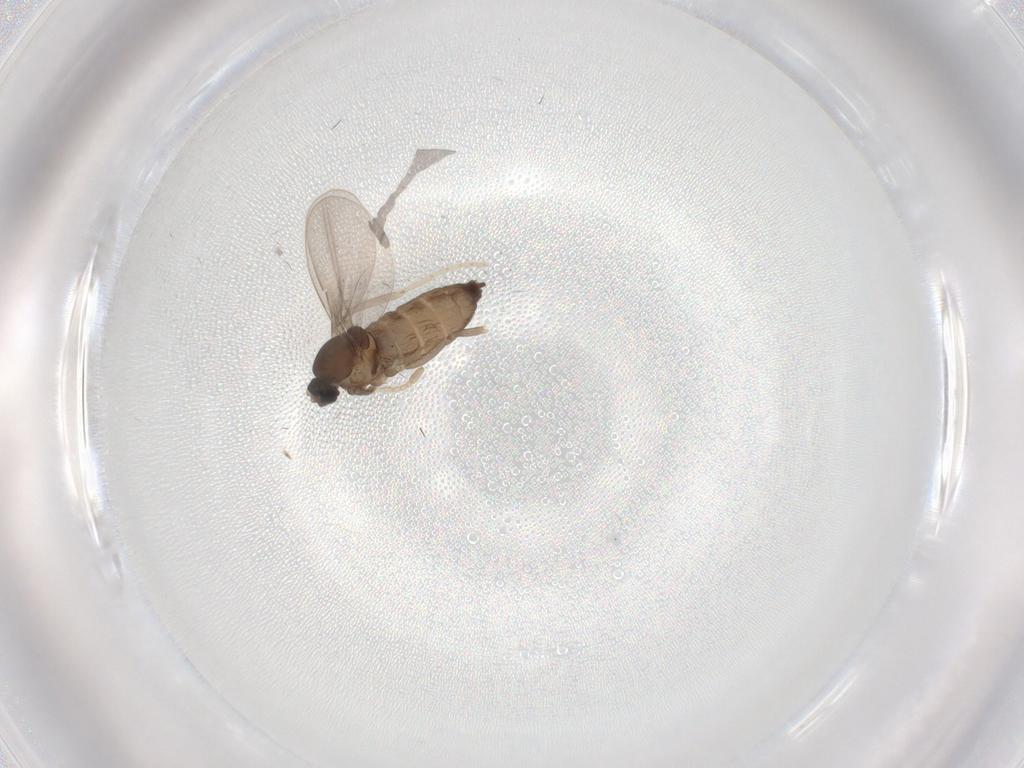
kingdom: Animalia
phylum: Arthropoda
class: Insecta
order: Diptera
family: Cecidomyiidae
